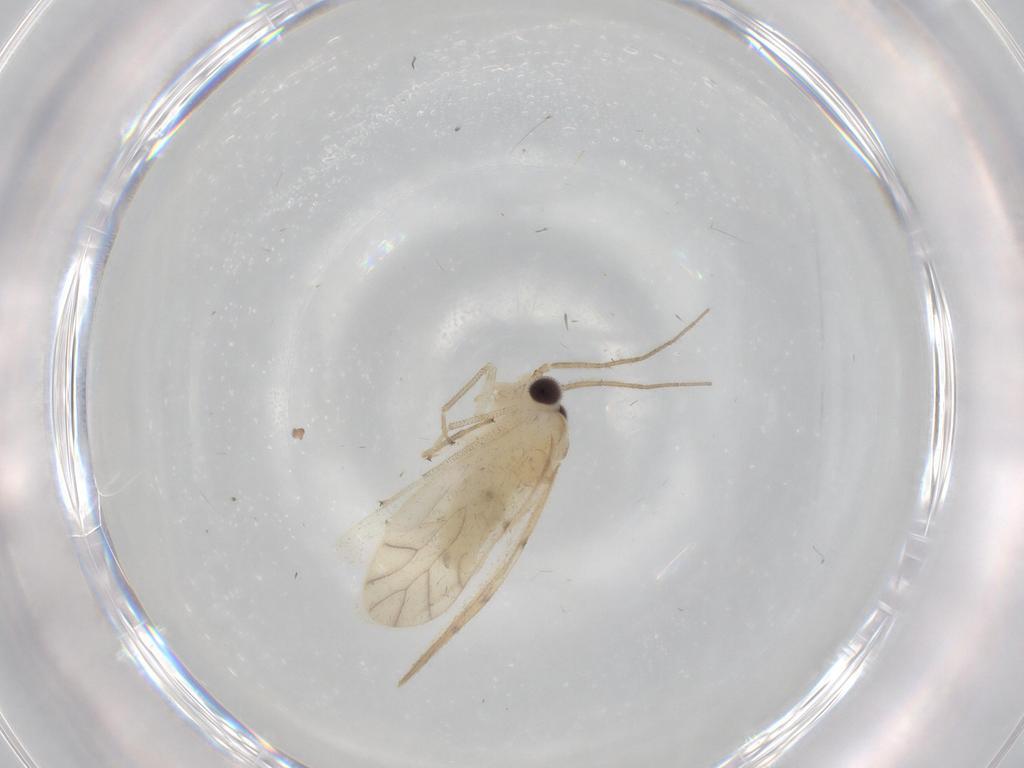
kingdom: Animalia
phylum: Arthropoda
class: Insecta
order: Psocodea
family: Caeciliusidae
